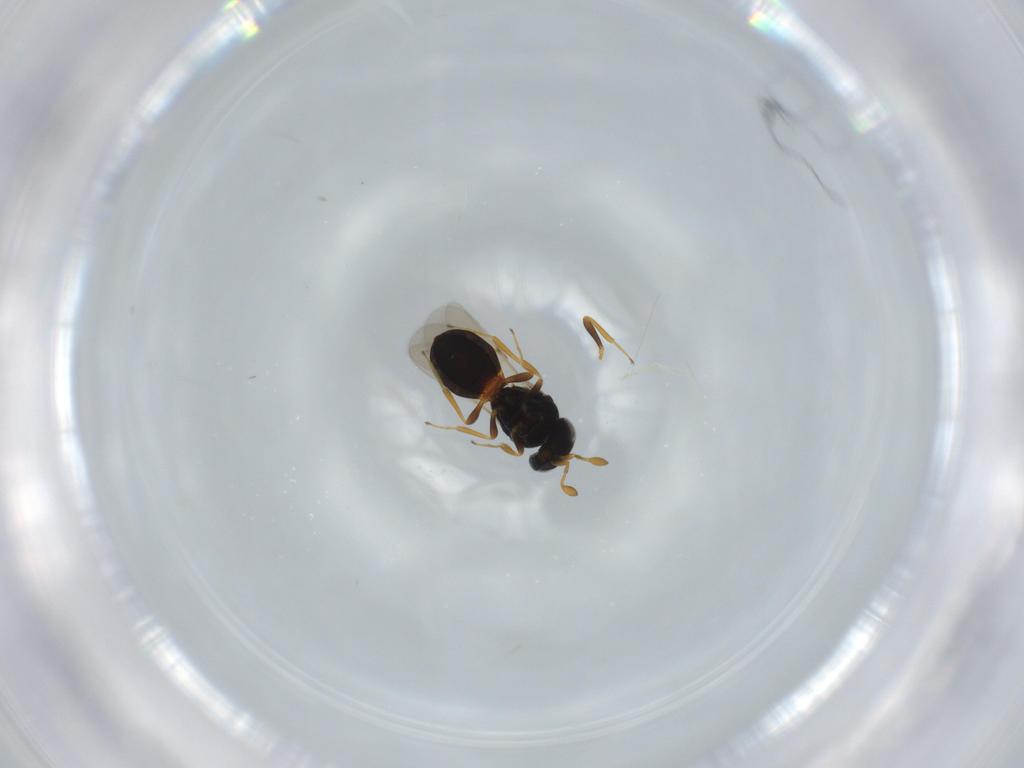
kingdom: Animalia
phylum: Arthropoda
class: Insecta
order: Hymenoptera
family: Scelionidae
